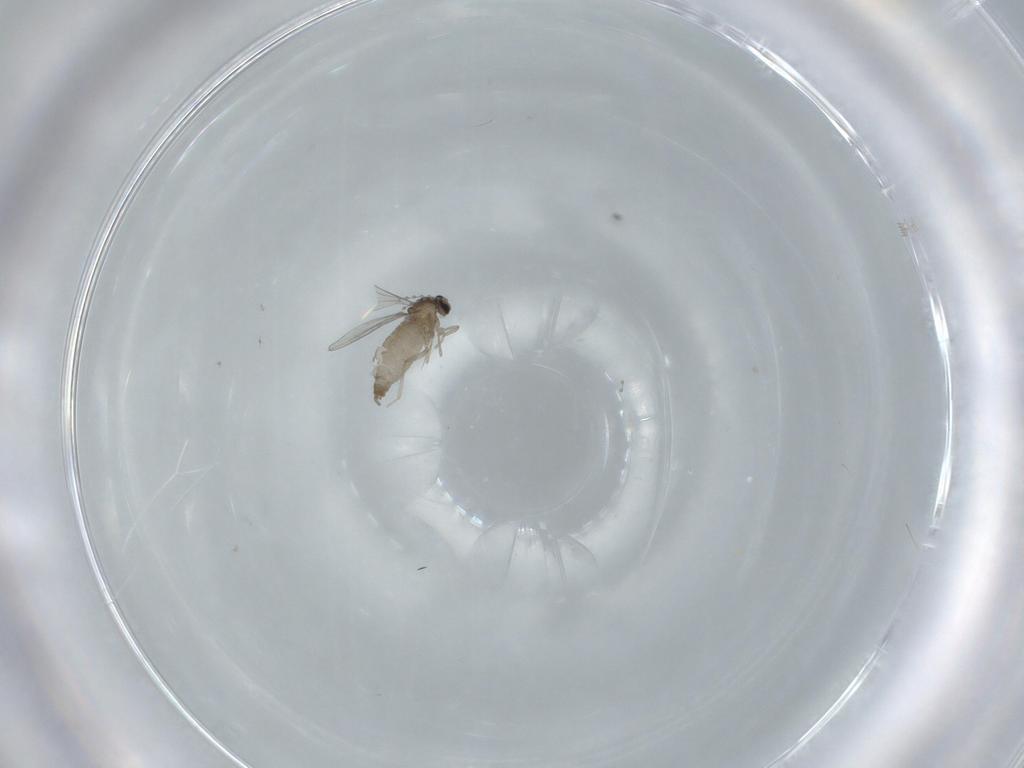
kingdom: Animalia
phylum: Arthropoda
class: Insecta
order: Diptera
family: Cecidomyiidae
